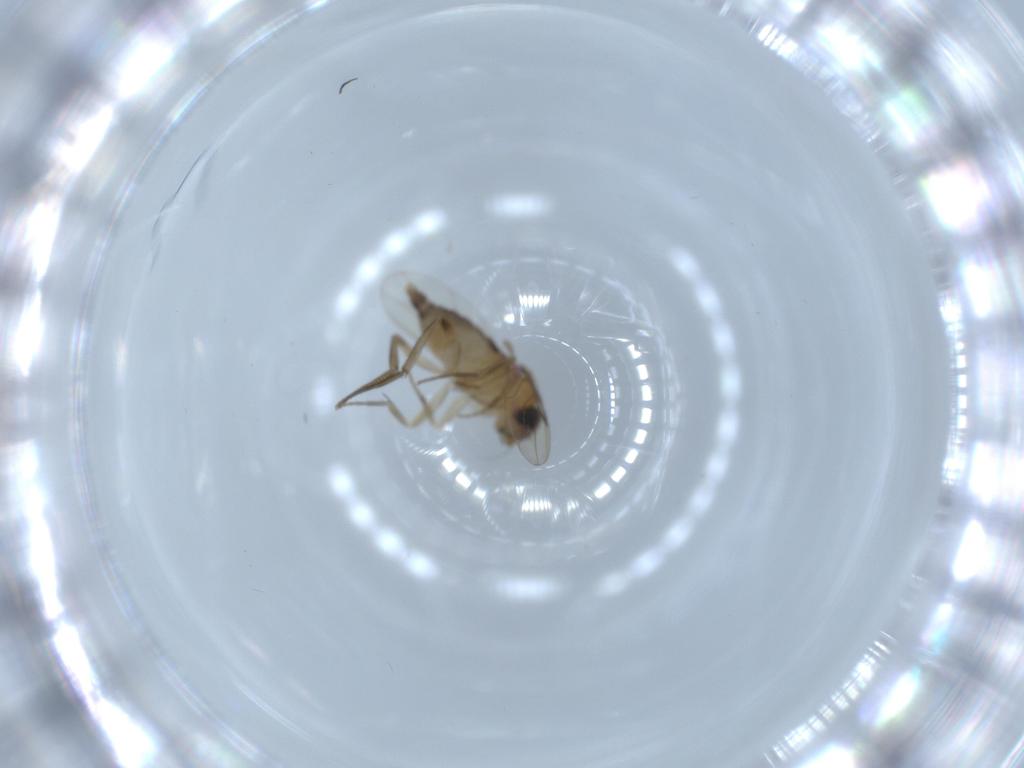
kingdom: Animalia
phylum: Arthropoda
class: Insecta
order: Diptera
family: Phoridae
